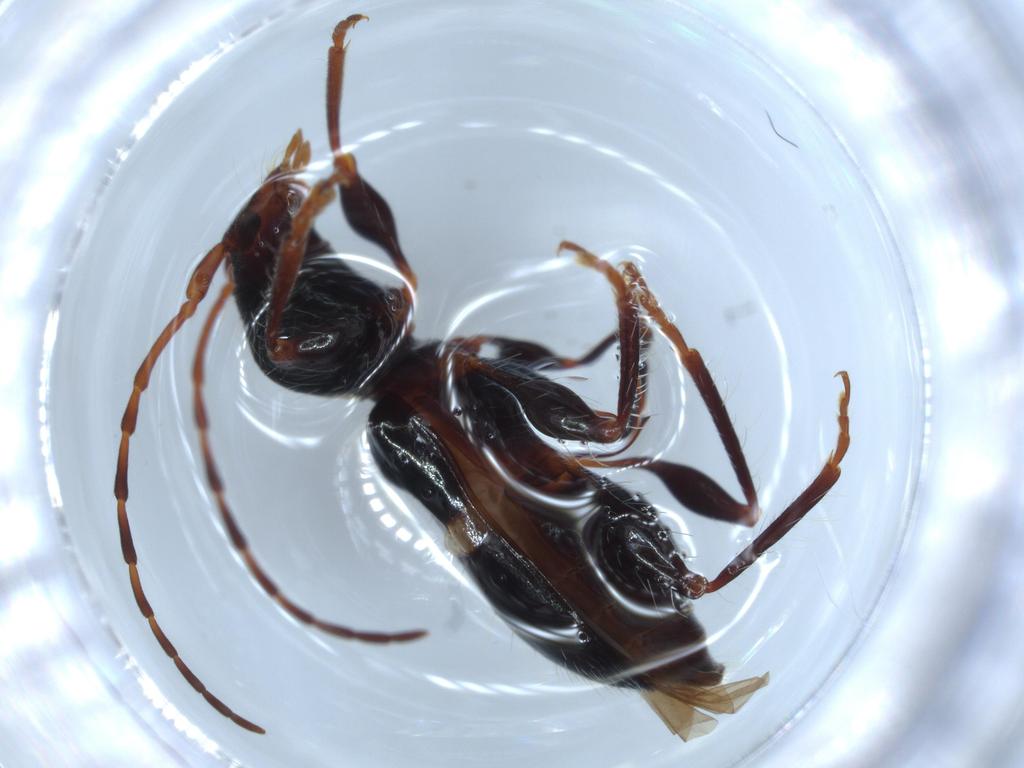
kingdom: Animalia
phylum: Arthropoda
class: Insecta
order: Coleoptera
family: Cerambycidae
